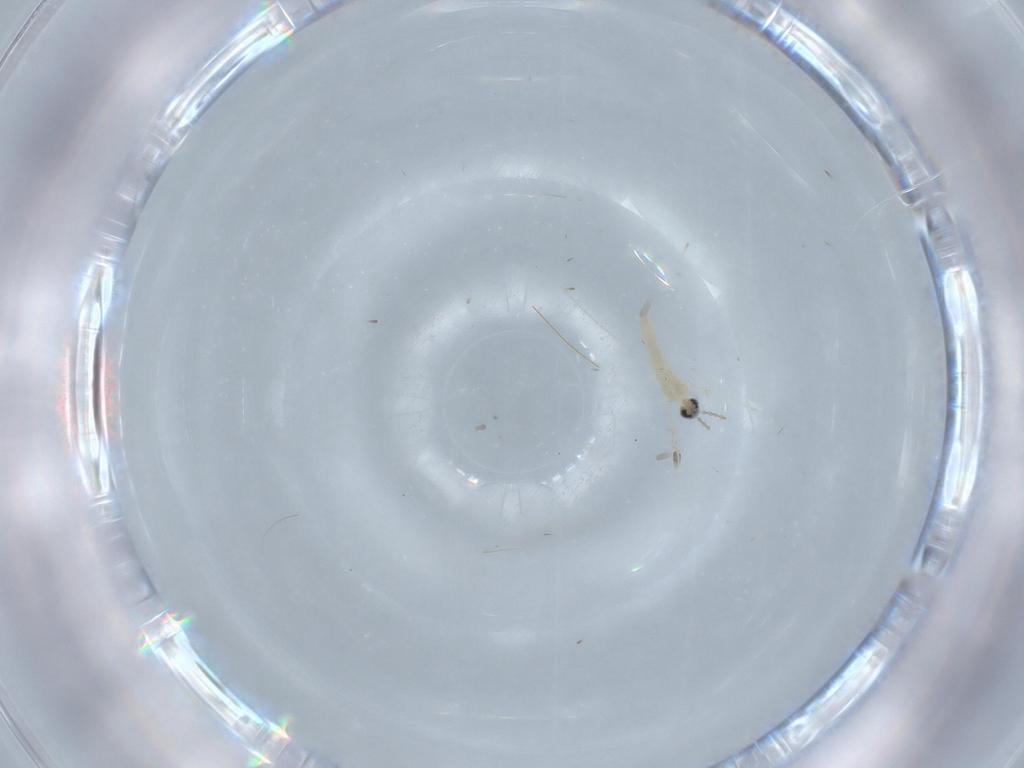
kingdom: Animalia
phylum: Arthropoda
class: Insecta
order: Diptera
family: Cecidomyiidae
